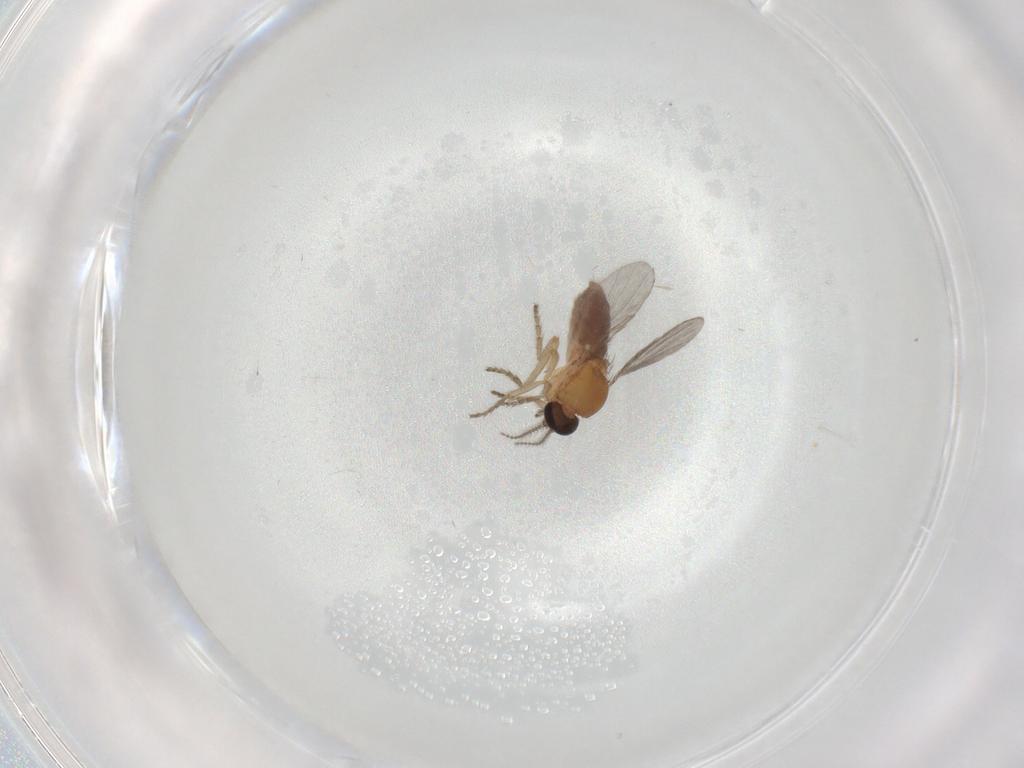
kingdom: Animalia
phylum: Arthropoda
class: Insecta
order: Diptera
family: Ceratopogonidae
